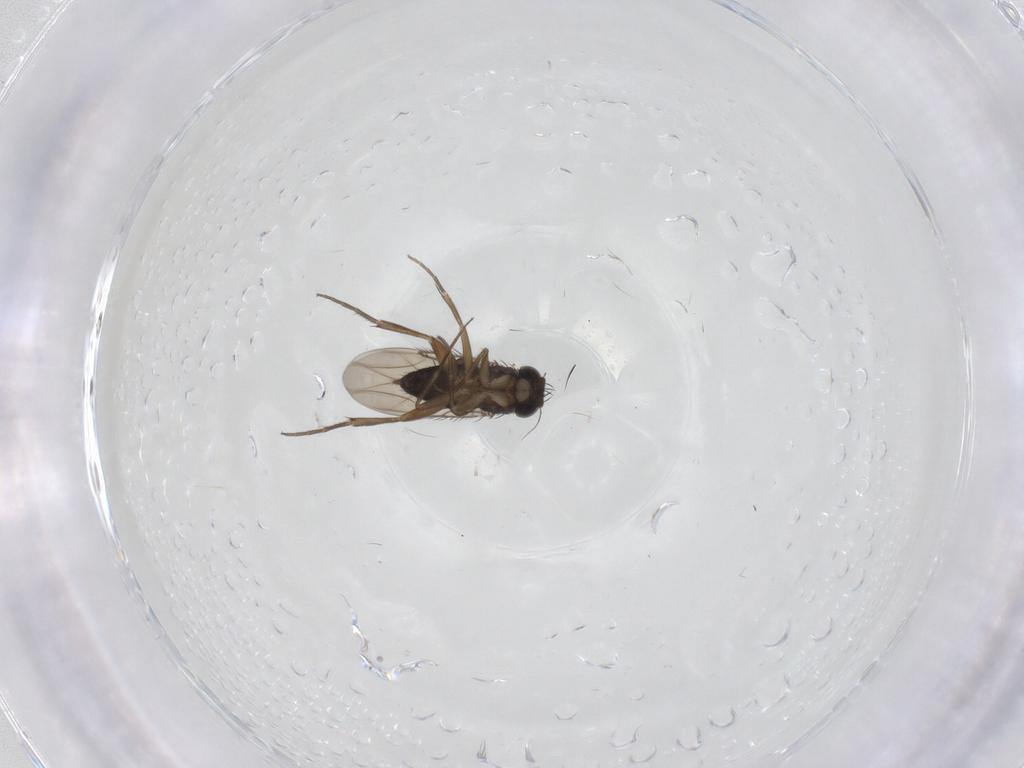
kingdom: Animalia
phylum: Arthropoda
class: Insecta
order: Diptera
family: Phoridae
